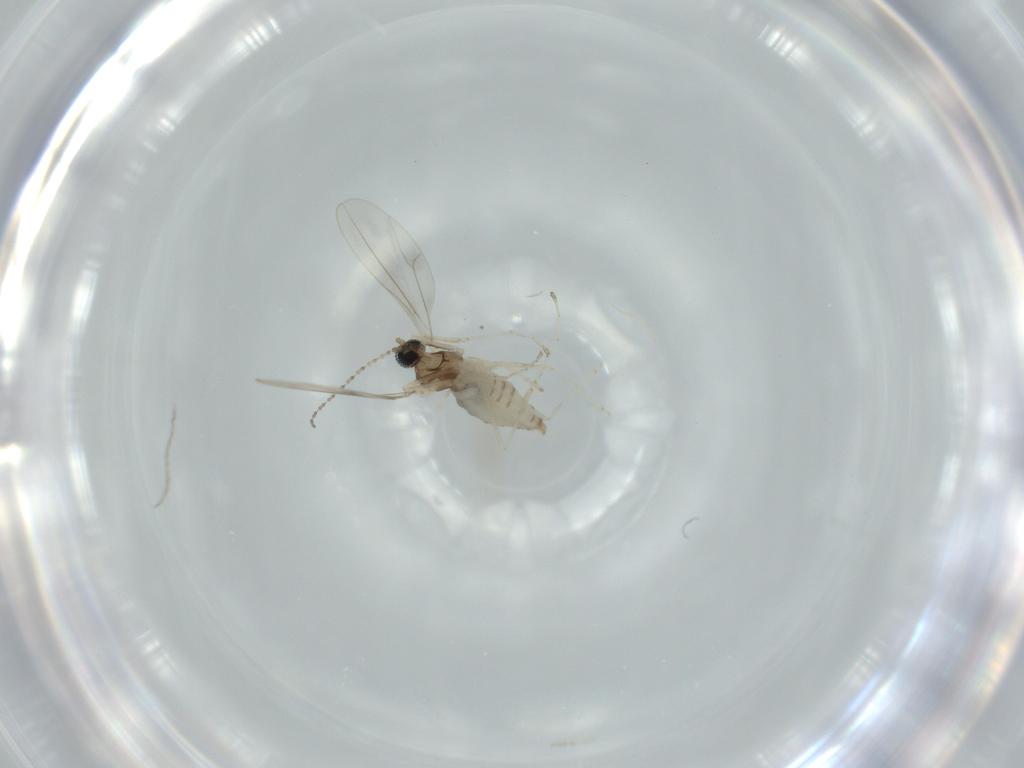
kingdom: Animalia
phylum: Arthropoda
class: Insecta
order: Diptera
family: Cecidomyiidae
